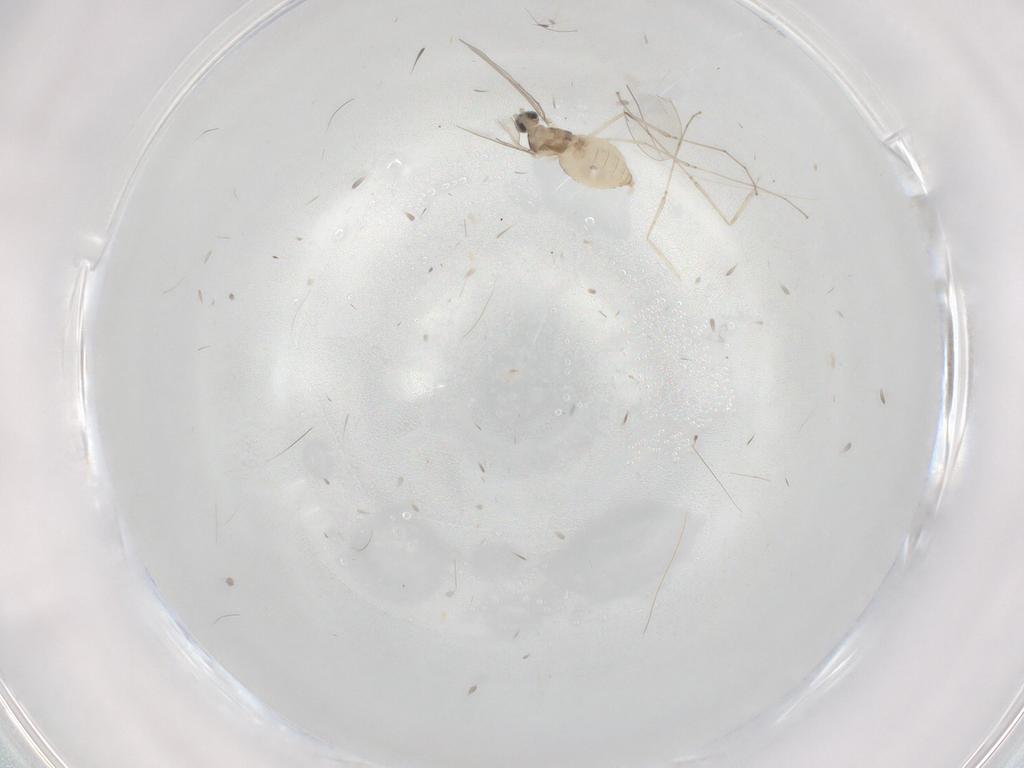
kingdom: Animalia
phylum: Arthropoda
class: Insecta
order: Diptera
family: Cecidomyiidae
